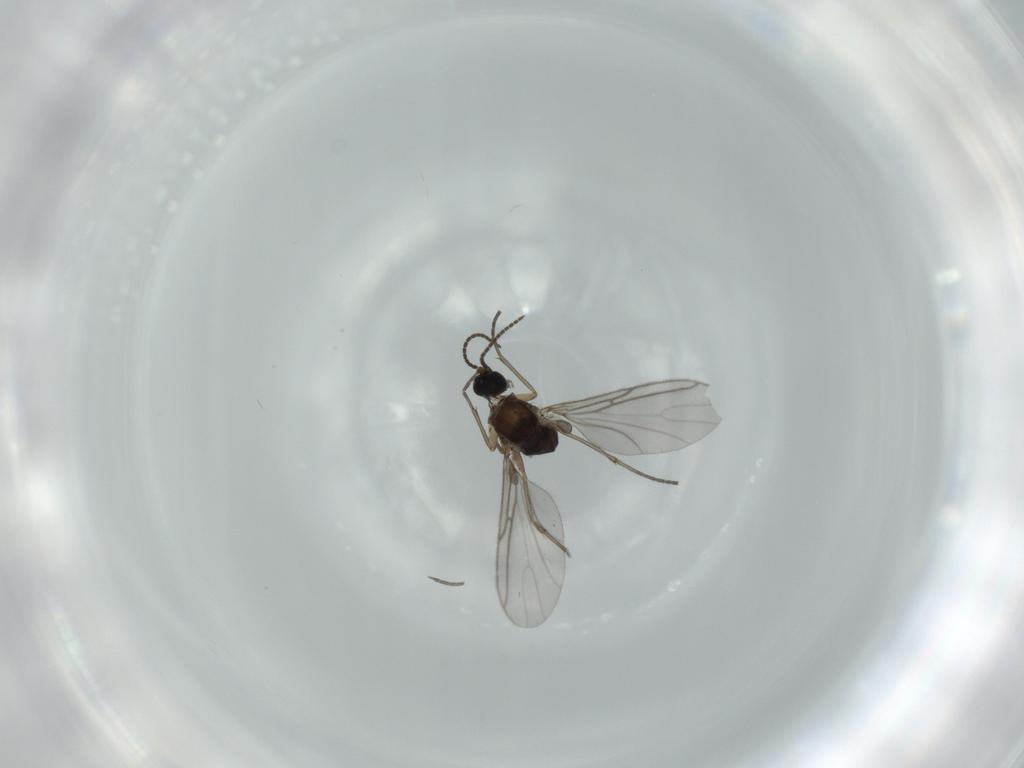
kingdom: Animalia
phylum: Arthropoda
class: Insecta
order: Diptera
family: Sciaridae
